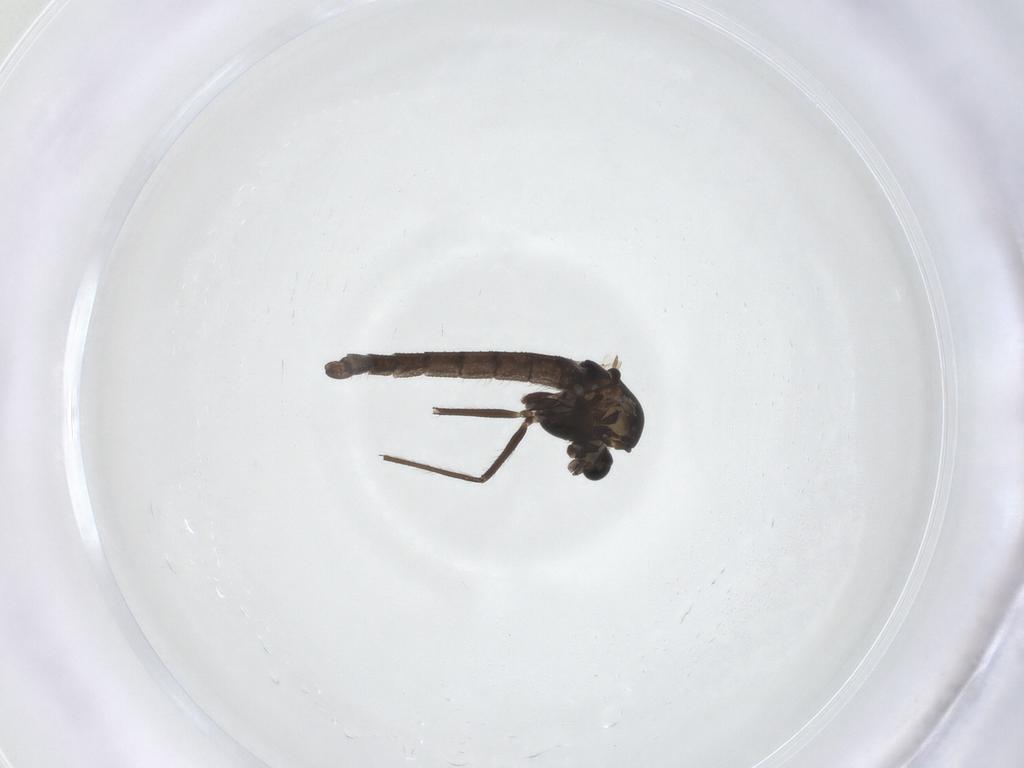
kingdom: Animalia
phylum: Arthropoda
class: Insecta
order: Diptera
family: Chironomidae
